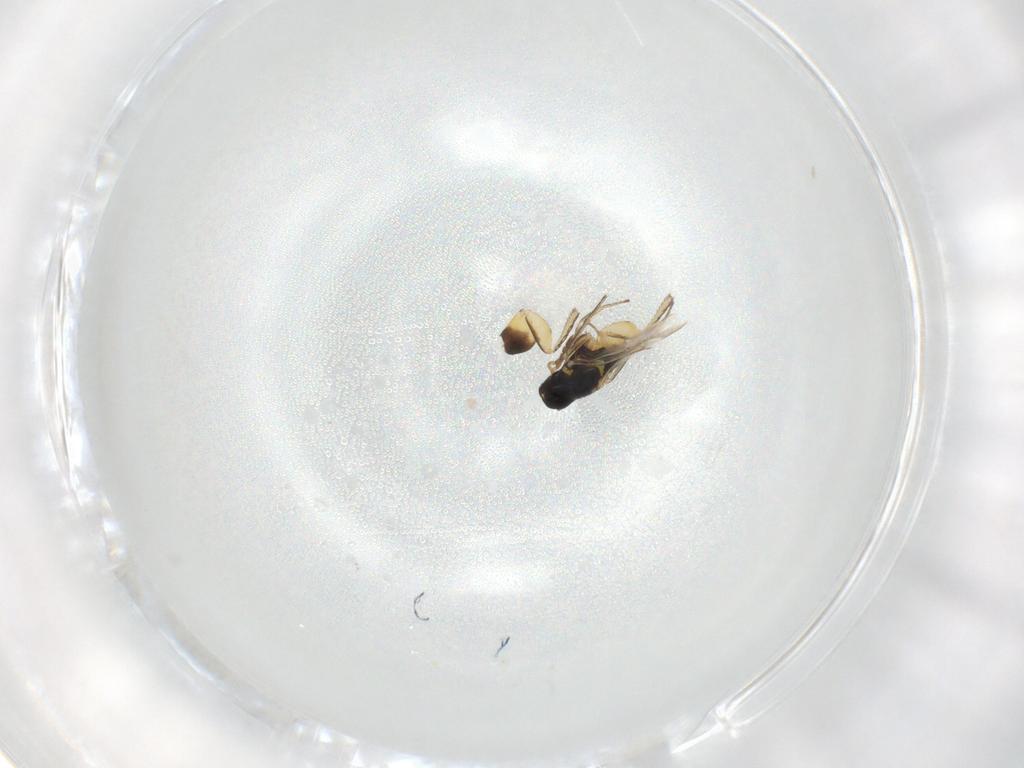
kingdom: Animalia
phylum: Arthropoda
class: Insecta
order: Hymenoptera
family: Eulophidae
